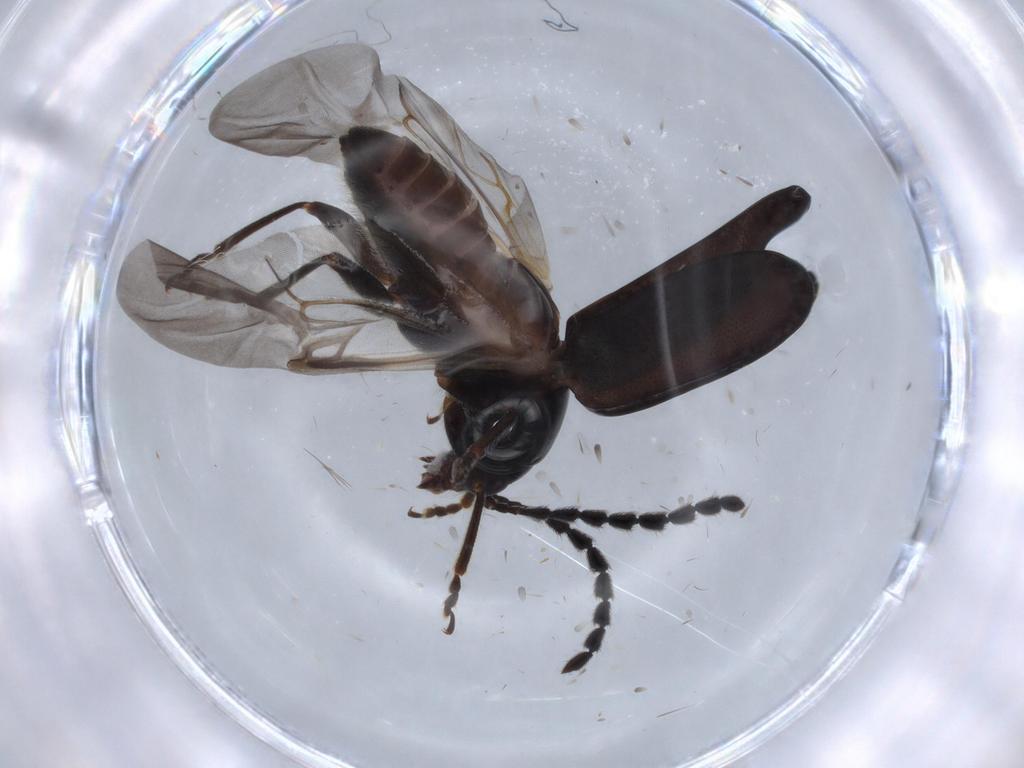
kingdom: Animalia
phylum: Arthropoda
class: Insecta
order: Coleoptera
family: Chrysomelidae
